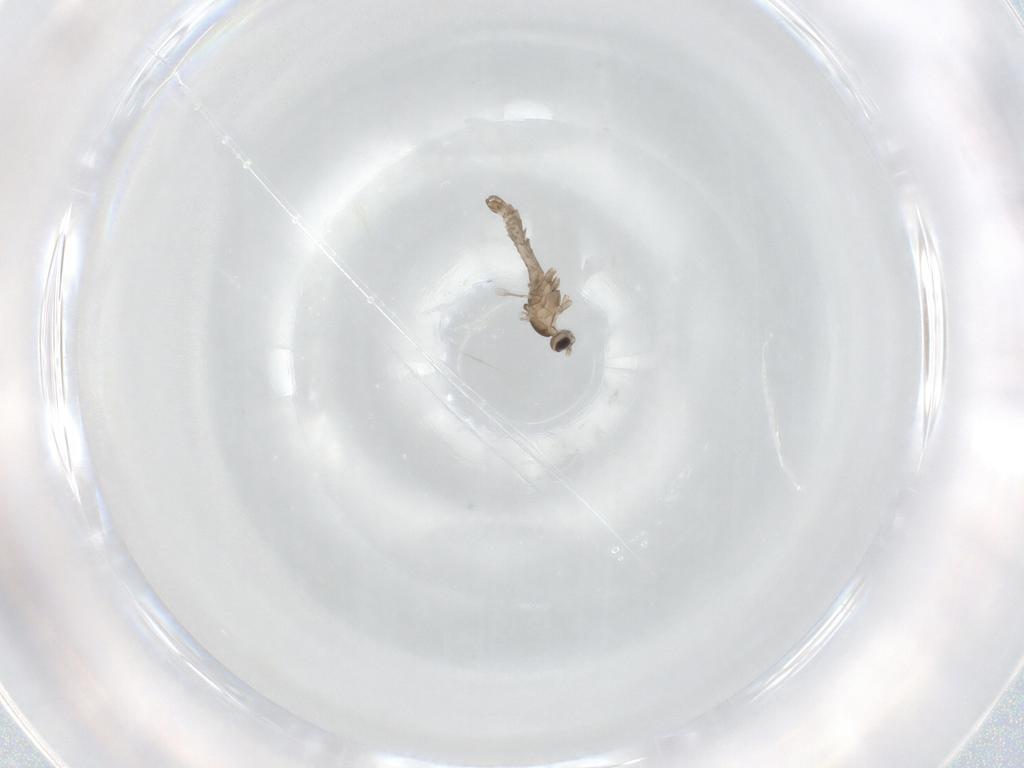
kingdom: Animalia
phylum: Arthropoda
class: Insecta
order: Diptera
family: Cecidomyiidae
